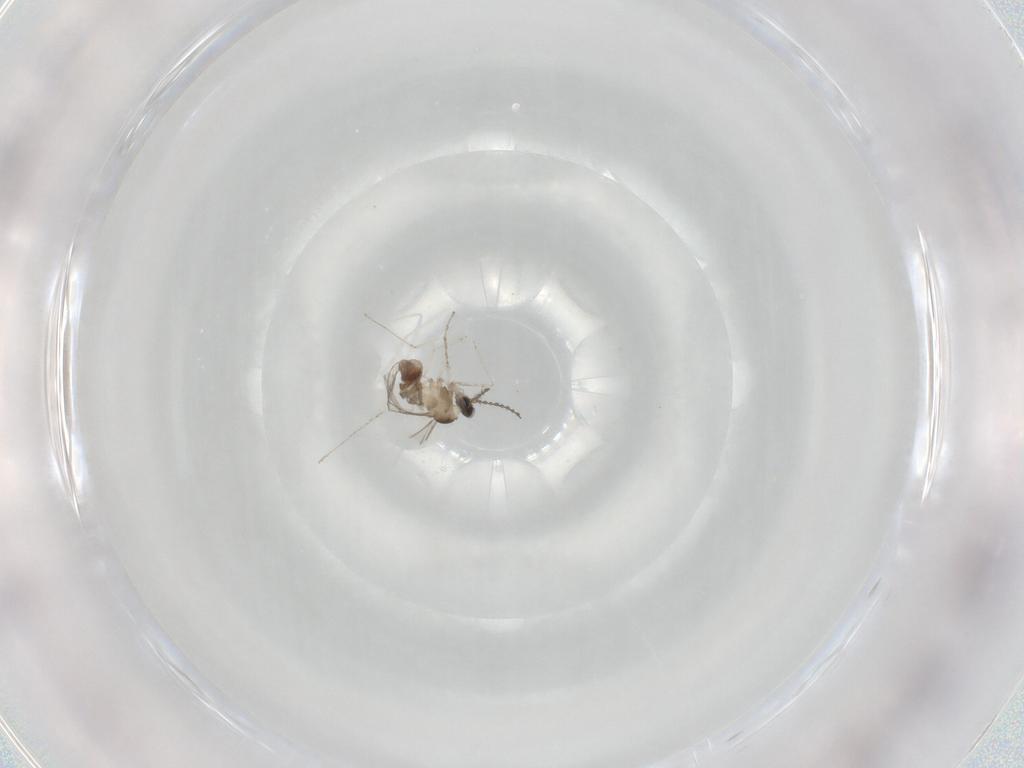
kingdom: Animalia
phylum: Arthropoda
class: Insecta
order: Diptera
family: Cecidomyiidae
